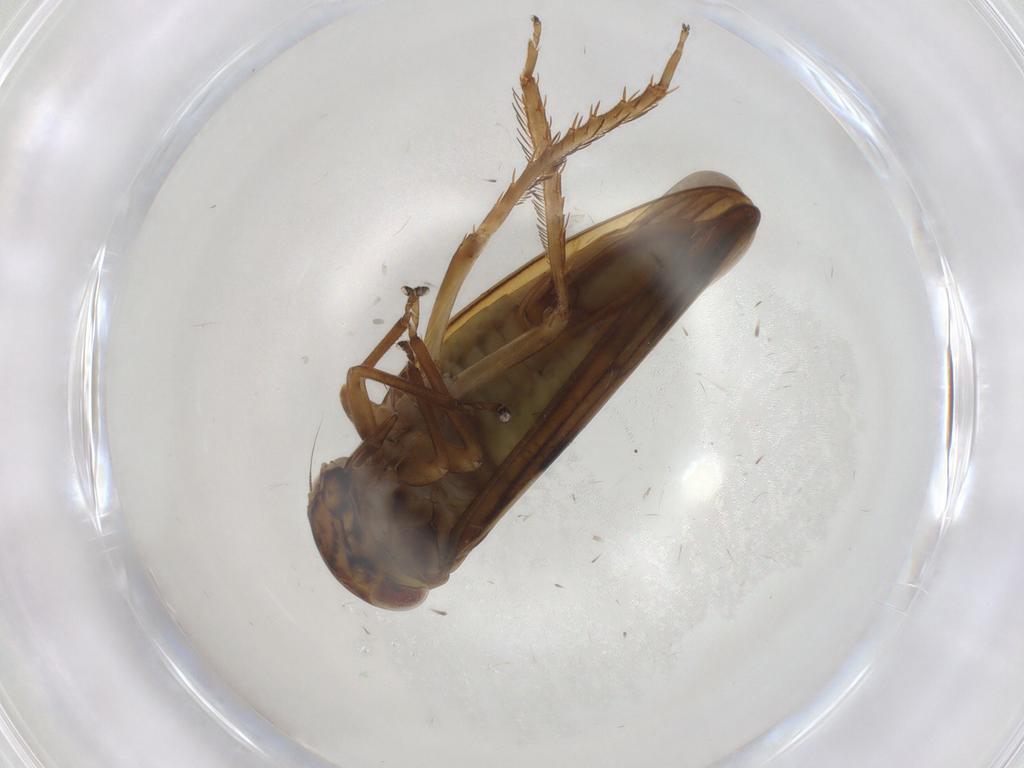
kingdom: Animalia
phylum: Arthropoda
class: Insecta
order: Hemiptera
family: Cicadellidae
